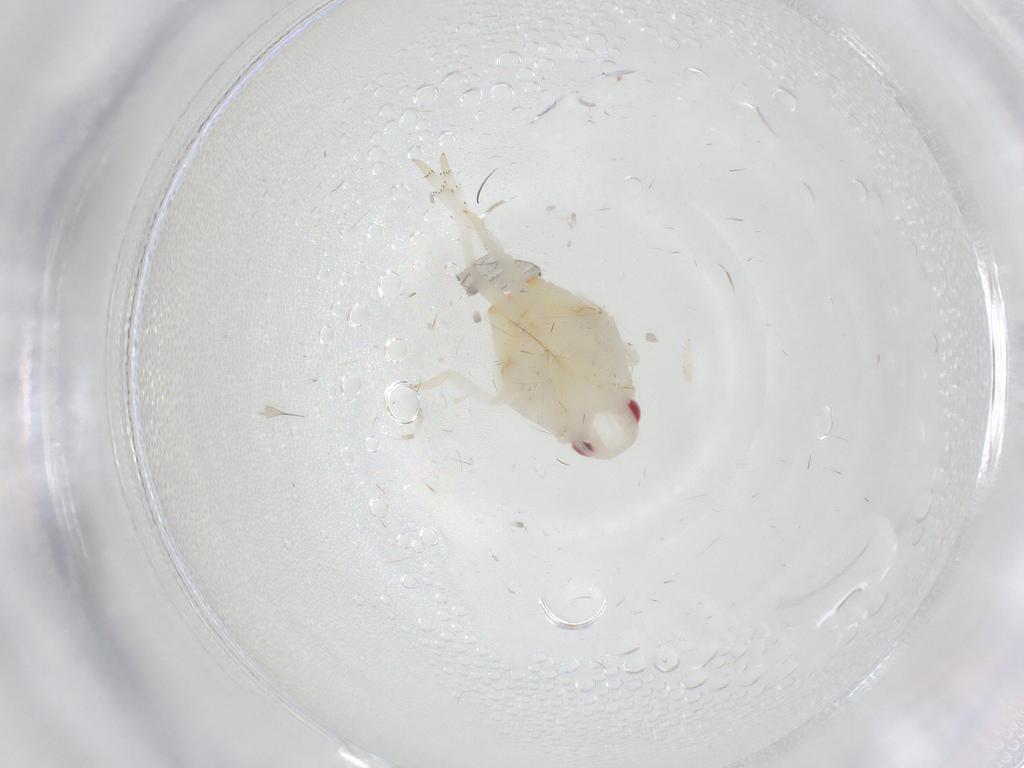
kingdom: Animalia
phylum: Arthropoda
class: Insecta
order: Hemiptera
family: Flatidae
